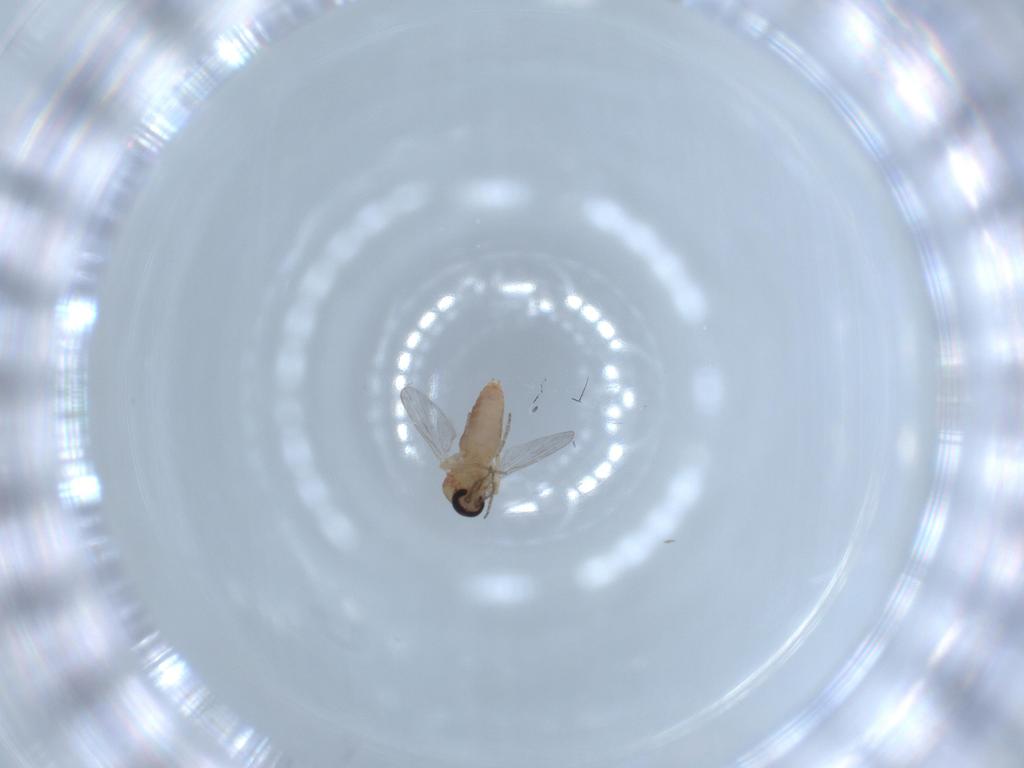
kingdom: Animalia
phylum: Arthropoda
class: Insecta
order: Diptera
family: Ceratopogonidae
